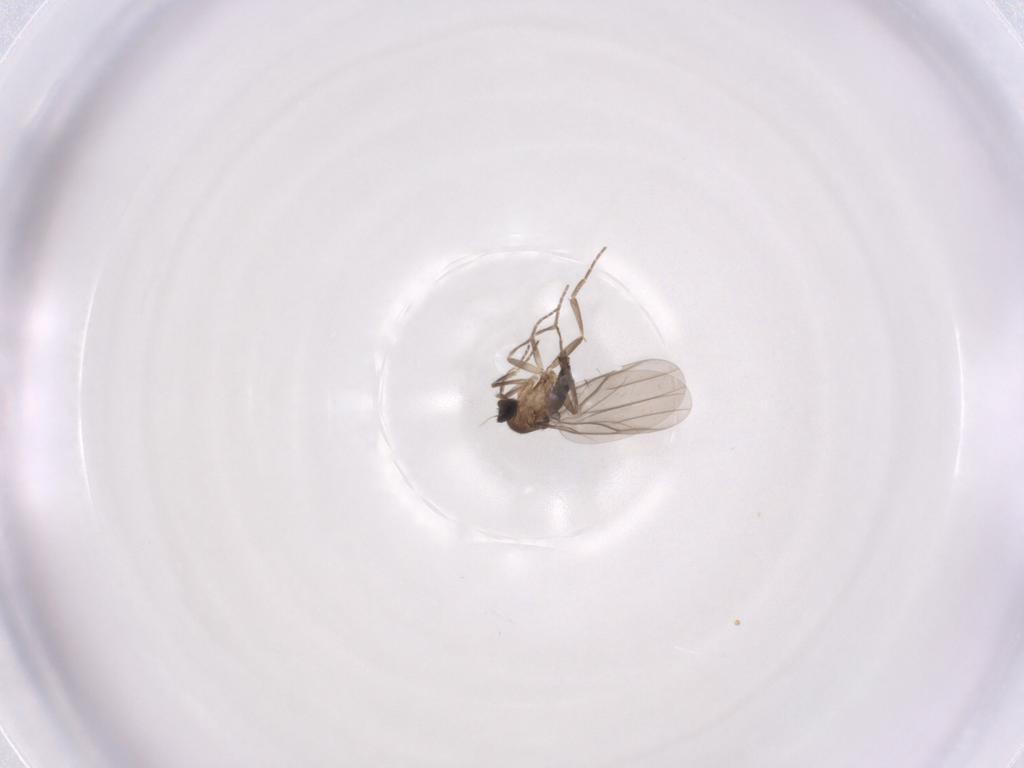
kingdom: Animalia
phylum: Arthropoda
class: Insecta
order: Diptera
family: Phoridae
